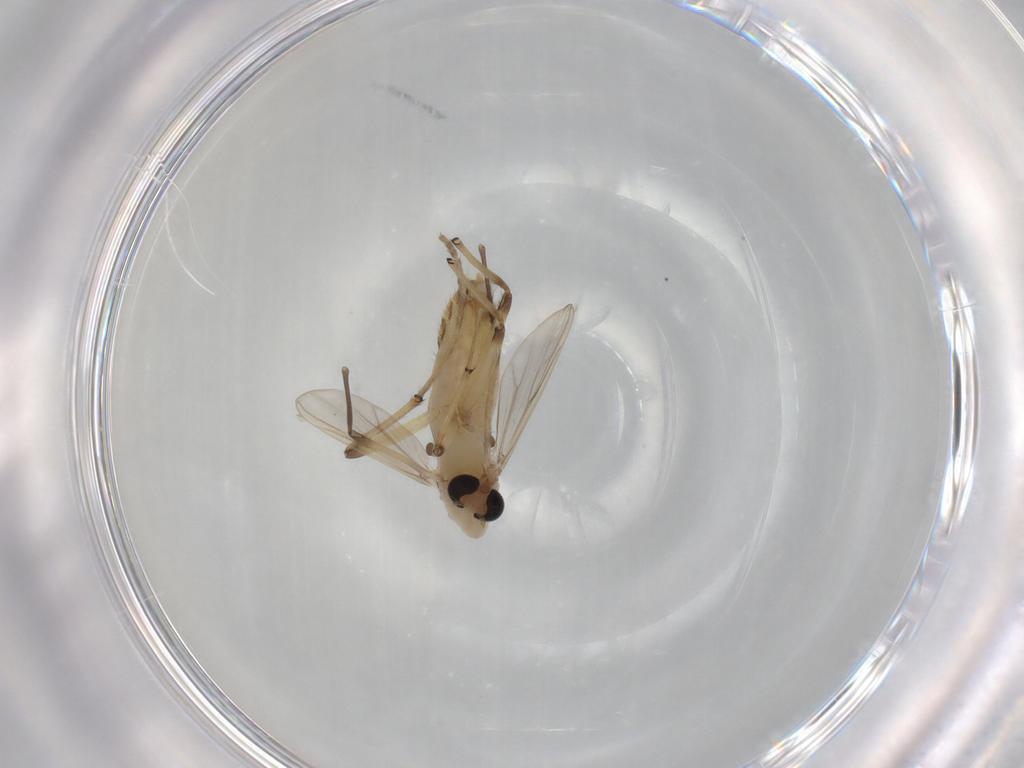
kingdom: Animalia
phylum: Arthropoda
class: Insecta
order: Diptera
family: Chironomidae
